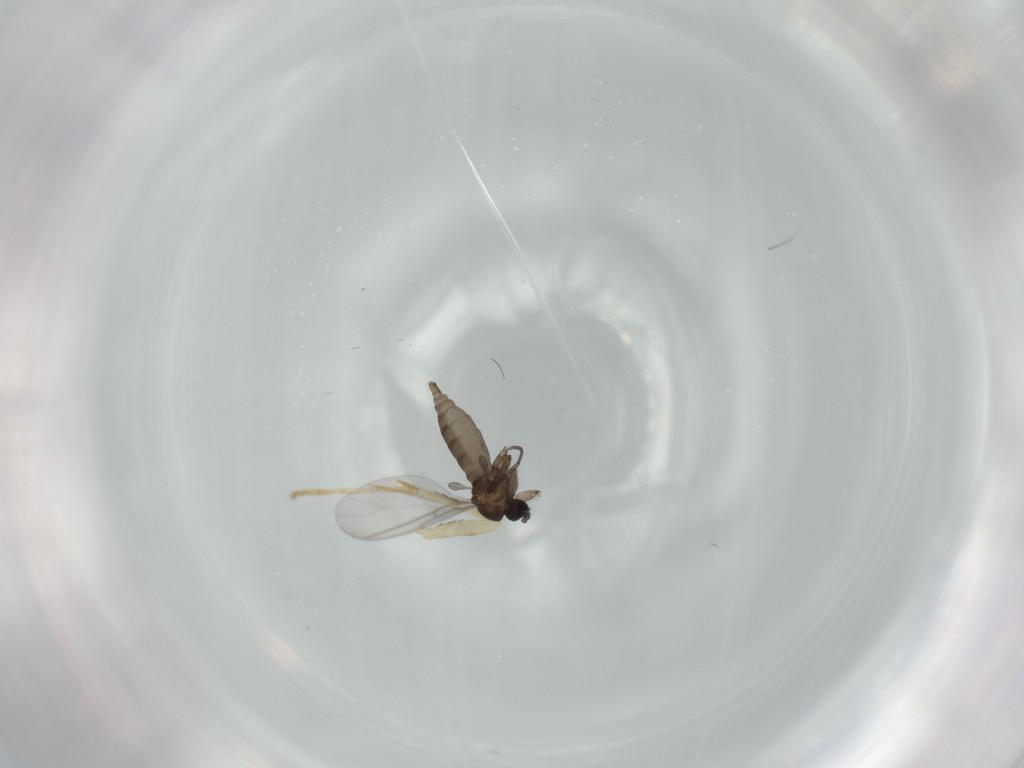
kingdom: Animalia
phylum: Arthropoda
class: Insecta
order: Diptera
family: Sciaridae
